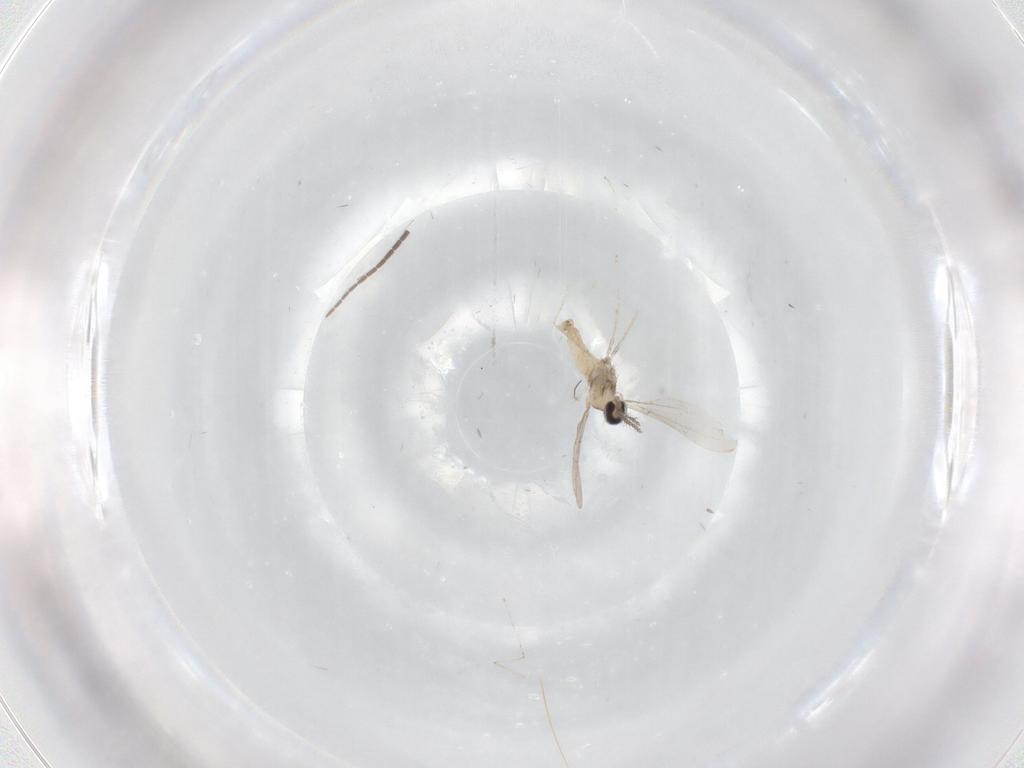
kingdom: Animalia
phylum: Arthropoda
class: Insecta
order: Diptera
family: Cecidomyiidae
